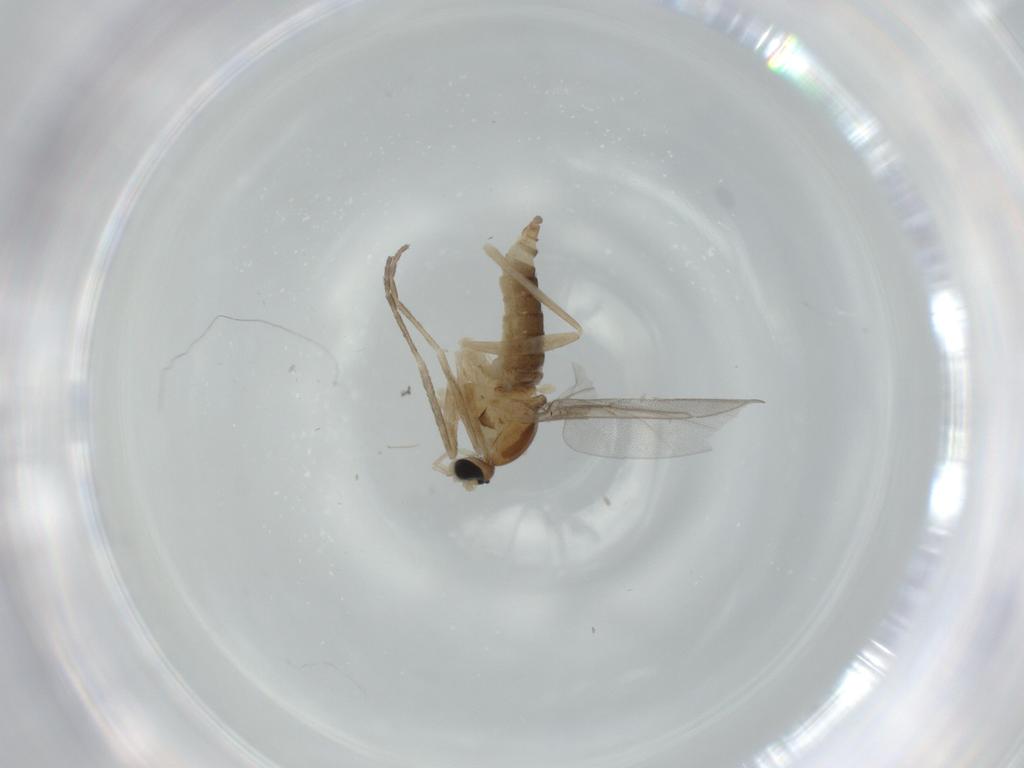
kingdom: Animalia
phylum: Arthropoda
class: Insecta
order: Diptera
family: Cecidomyiidae
